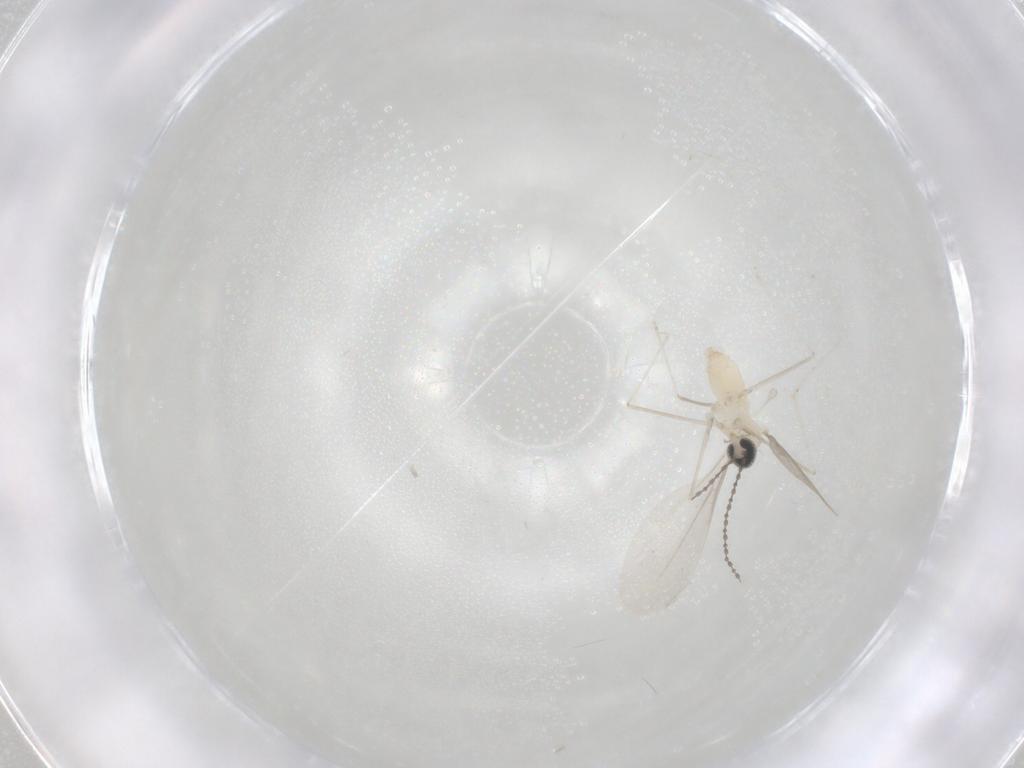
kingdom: Animalia
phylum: Arthropoda
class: Insecta
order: Diptera
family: Cecidomyiidae
